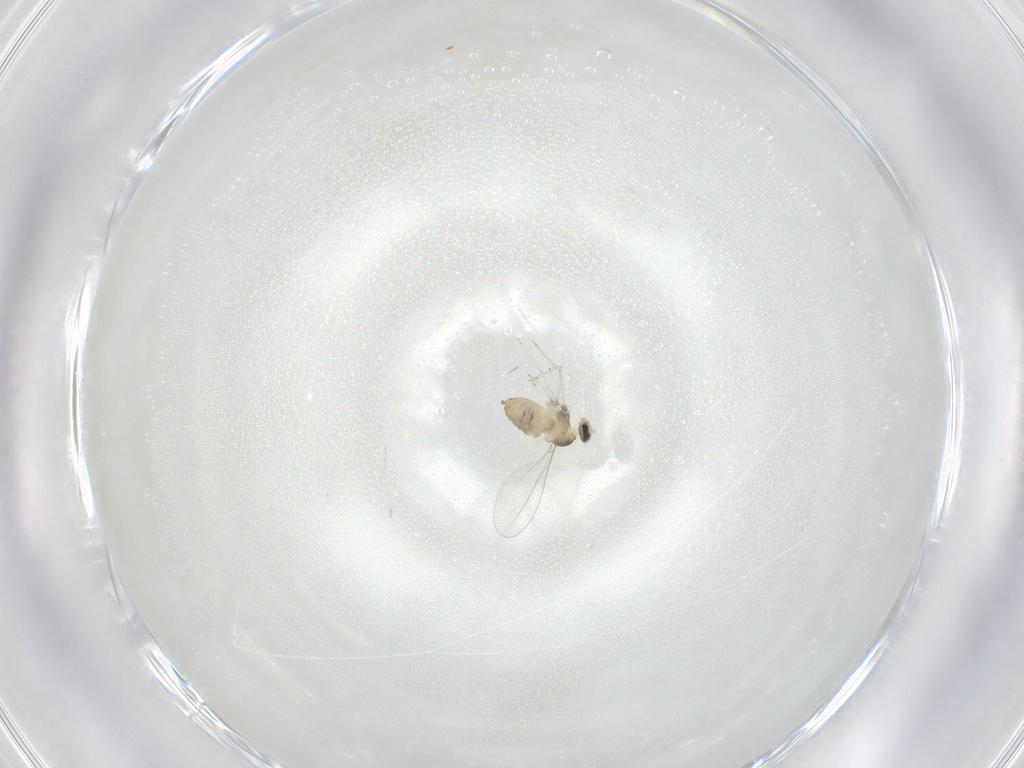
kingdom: Animalia
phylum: Arthropoda
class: Insecta
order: Diptera
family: Cecidomyiidae
